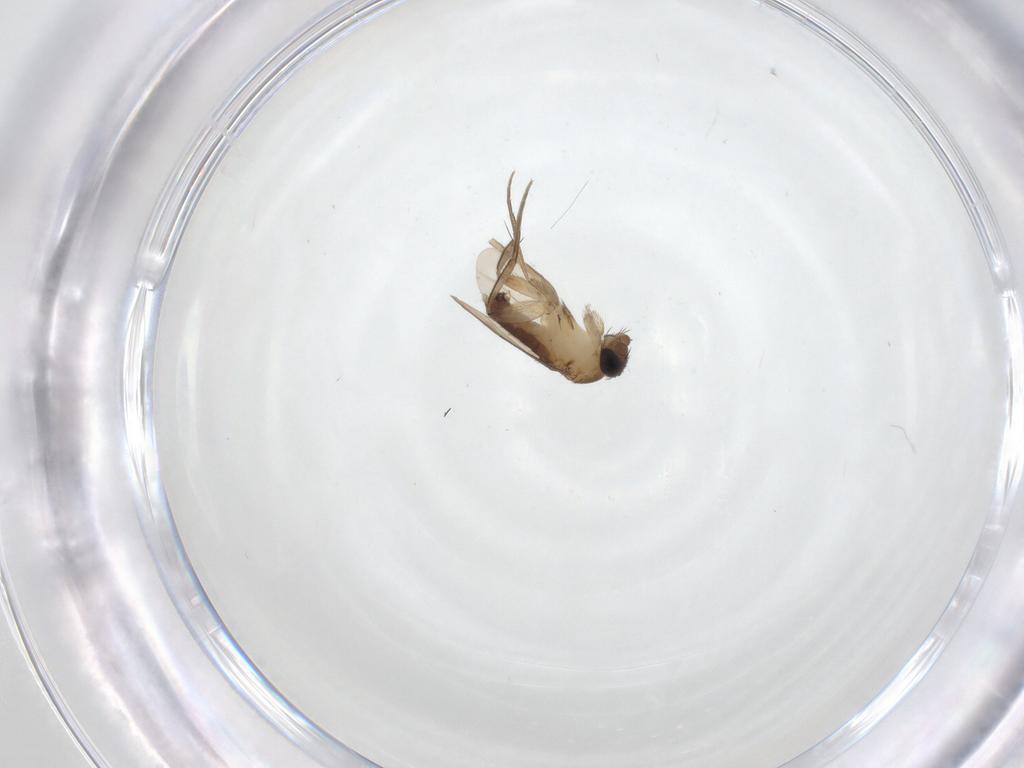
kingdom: Animalia
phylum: Arthropoda
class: Insecta
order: Diptera
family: Phoridae
